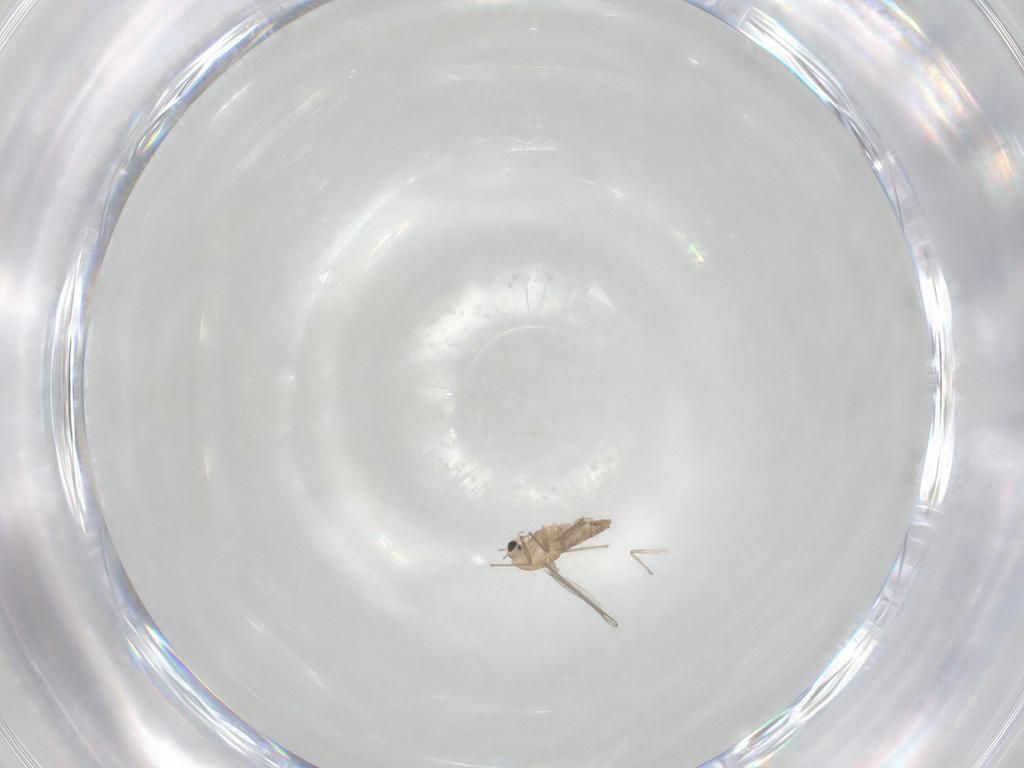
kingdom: Animalia
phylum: Arthropoda
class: Insecta
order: Diptera
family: Chironomidae
